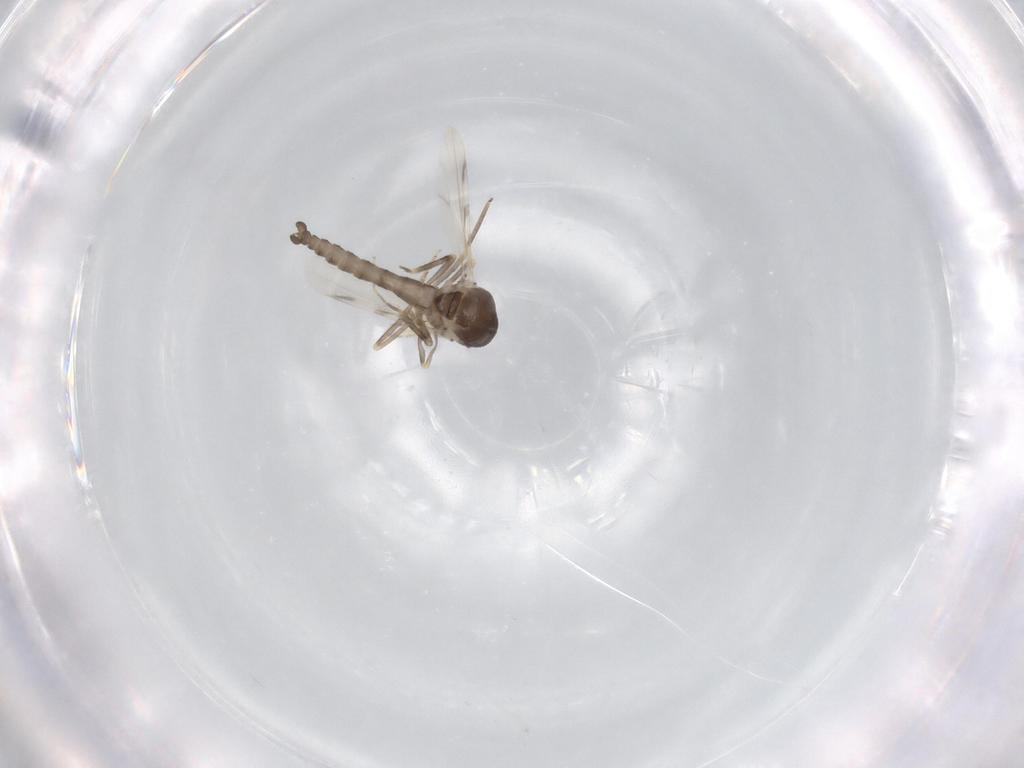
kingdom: Animalia
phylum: Arthropoda
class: Insecta
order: Diptera
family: Ceratopogonidae
